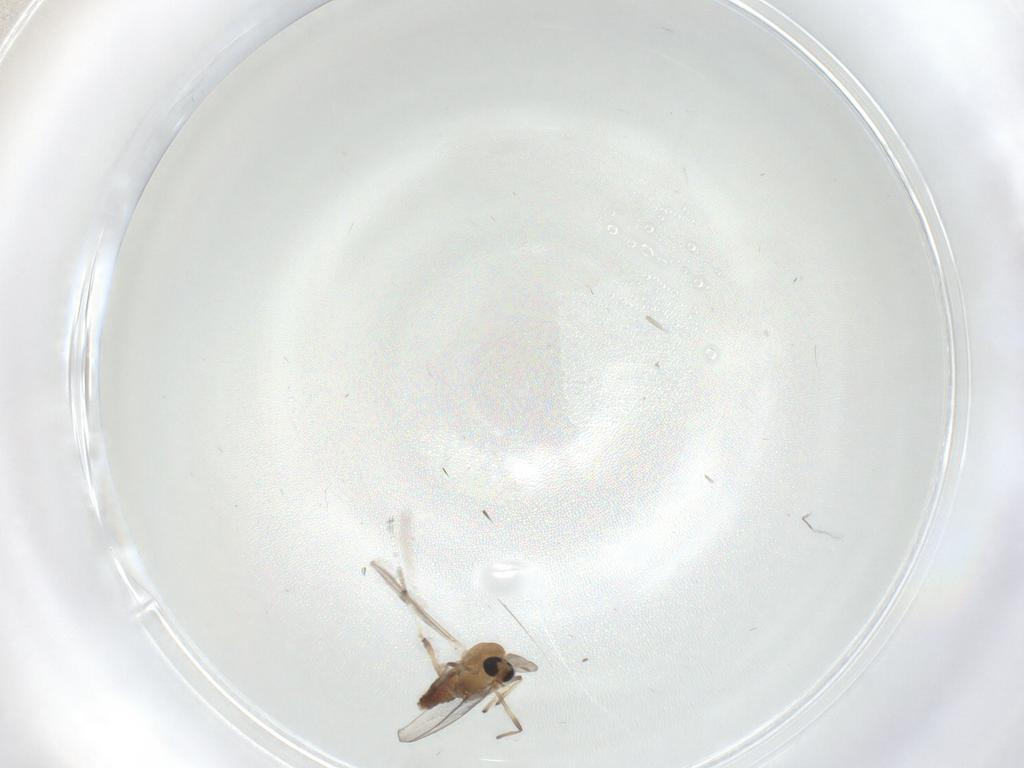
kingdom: Animalia
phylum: Arthropoda
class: Insecta
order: Diptera
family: Chironomidae
